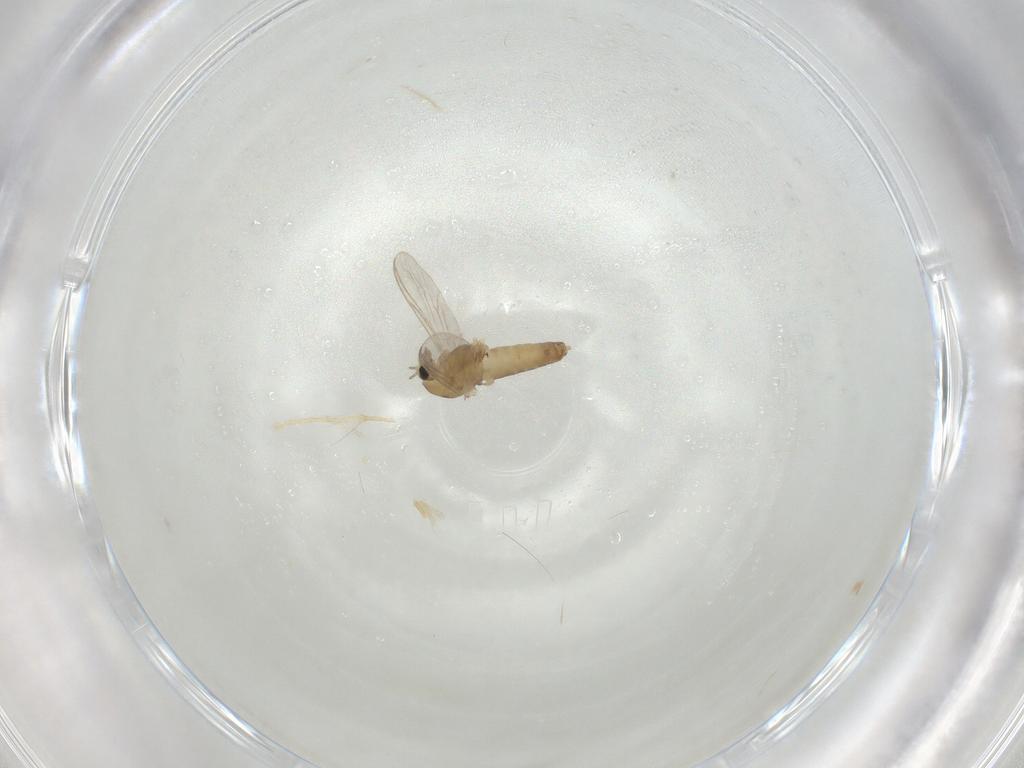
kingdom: Animalia
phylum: Arthropoda
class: Insecta
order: Diptera
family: Chironomidae
